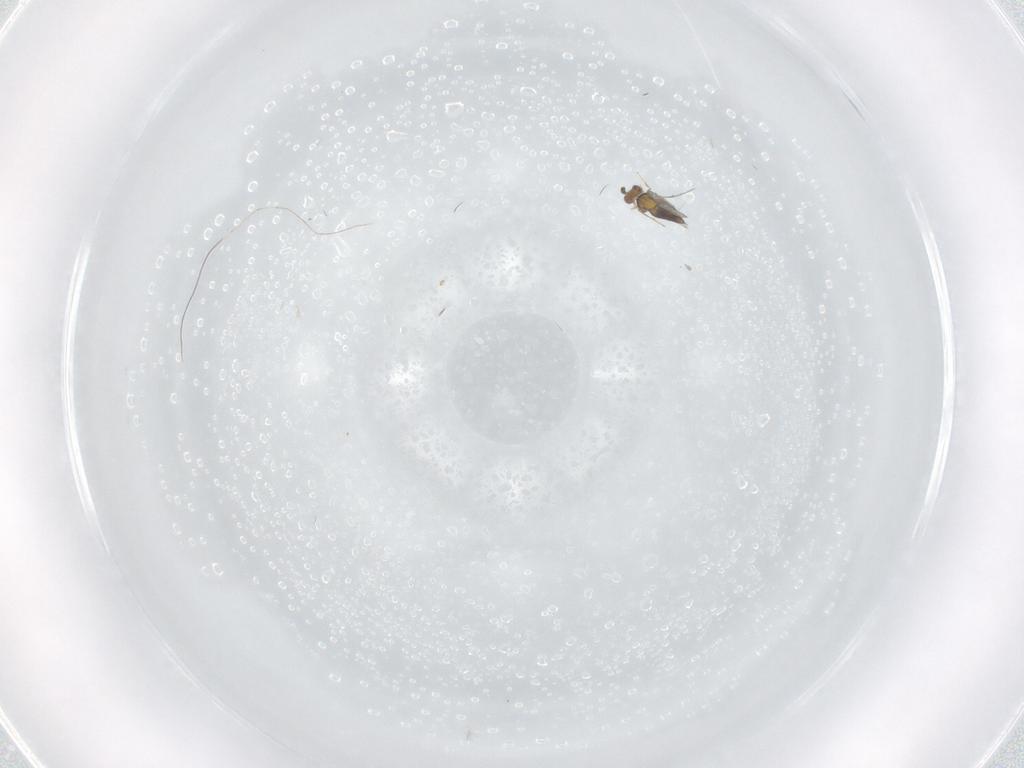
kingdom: Animalia
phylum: Arthropoda
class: Insecta
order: Hymenoptera
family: Trichogrammatidae
